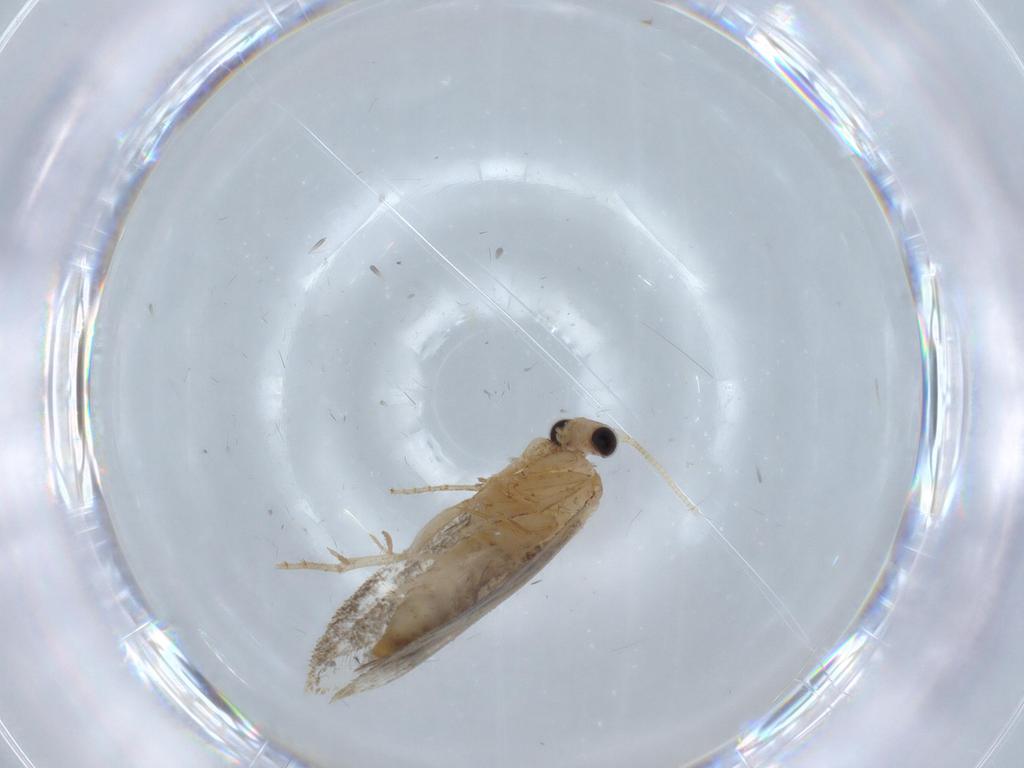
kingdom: Animalia
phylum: Arthropoda
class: Insecta
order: Lepidoptera
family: Nepticulidae
